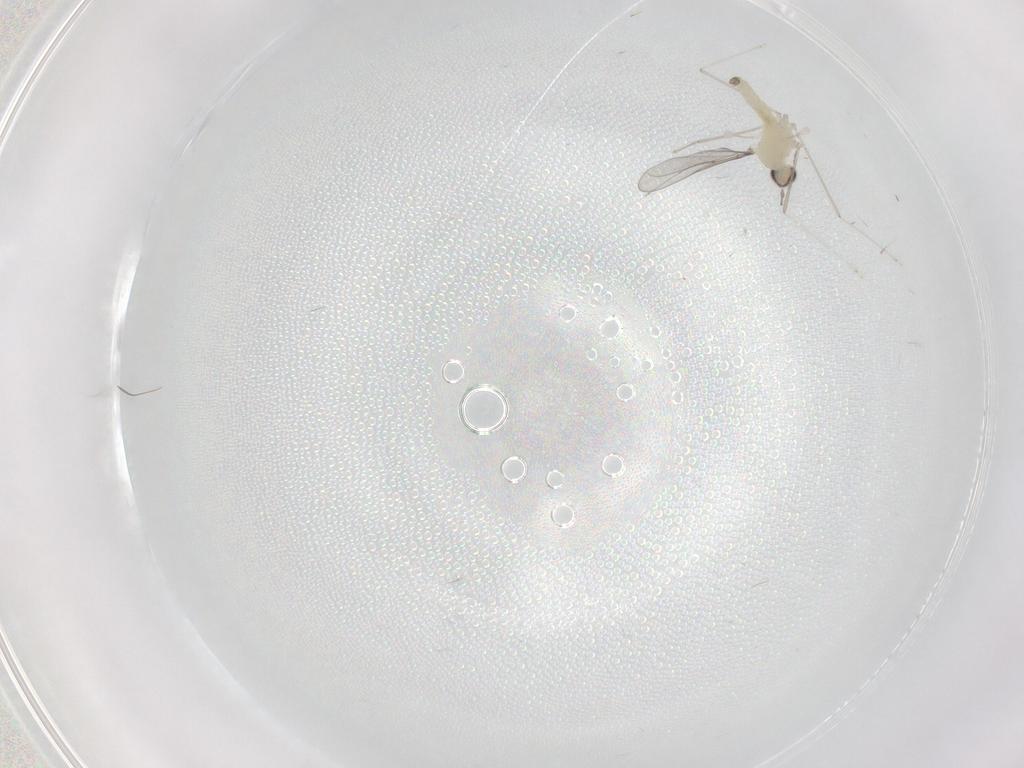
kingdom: Animalia
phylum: Arthropoda
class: Insecta
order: Diptera
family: Cecidomyiidae
